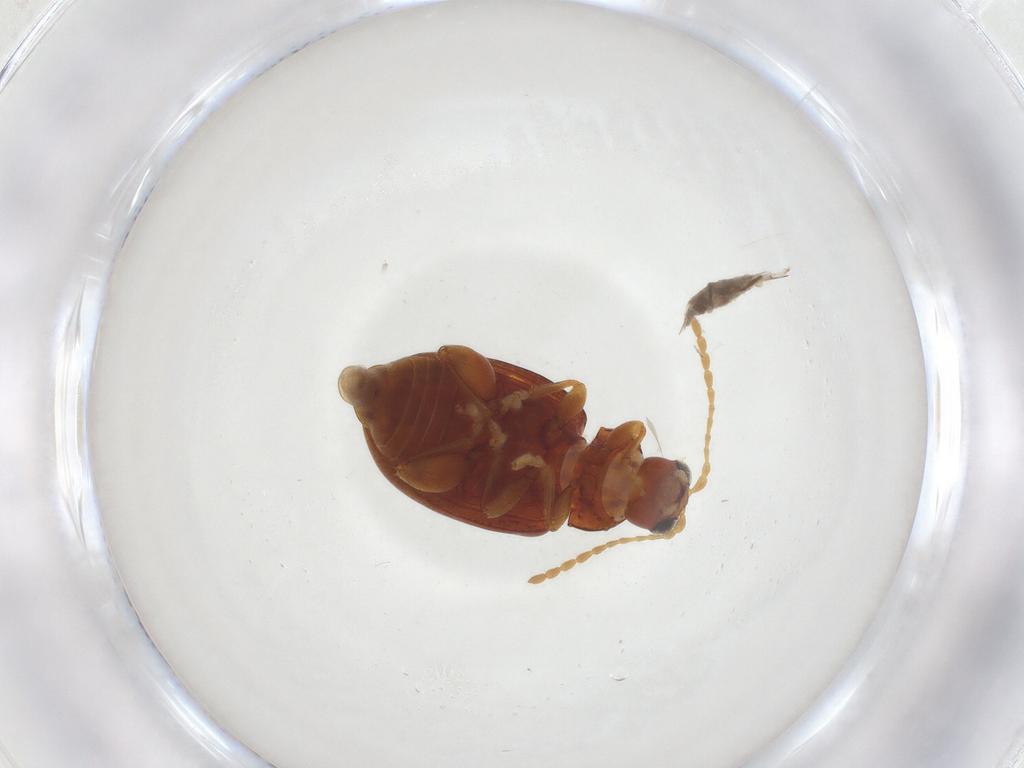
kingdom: Animalia
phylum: Arthropoda
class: Insecta
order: Coleoptera
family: Chrysomelidae
